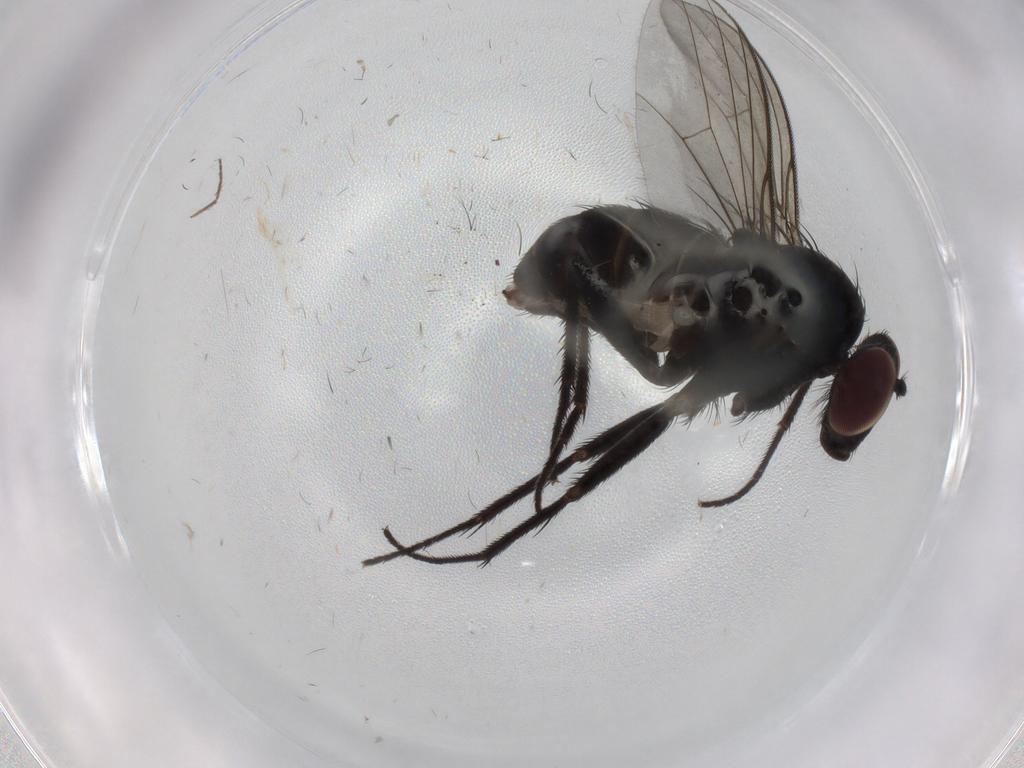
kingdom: Animalia
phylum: Arthropoda
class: Insecta
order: Diptera
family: Dolichopodidae
